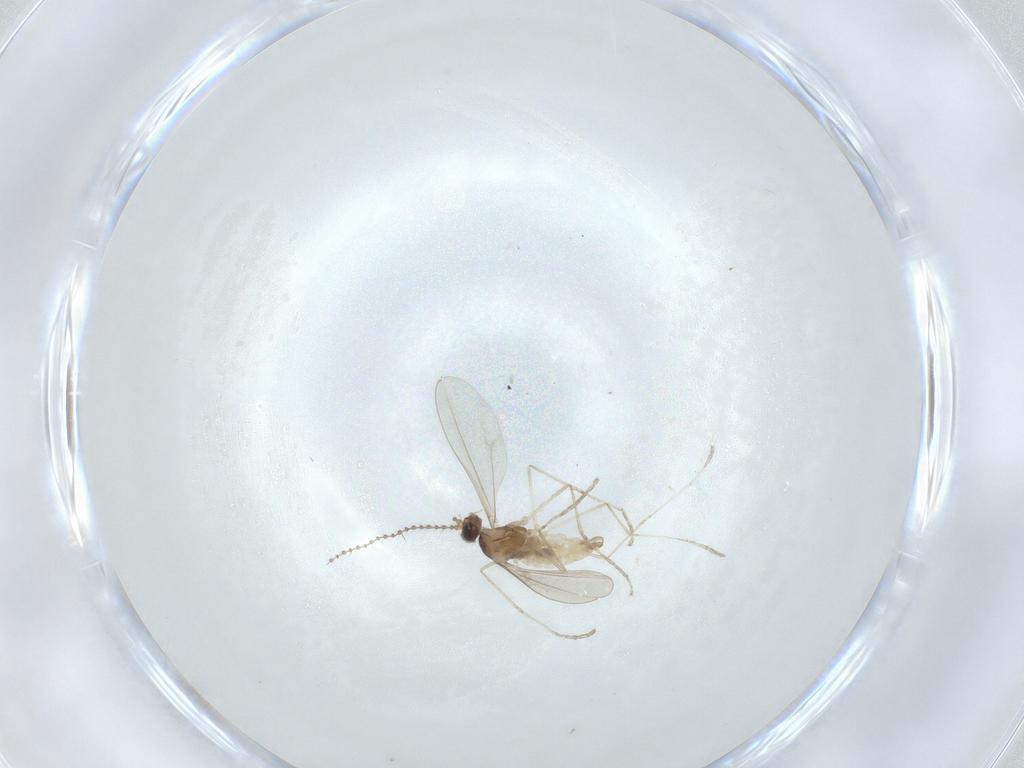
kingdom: Animalia
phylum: Arthropoda
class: Insecta
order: Diptera
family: Cecidomyiidae
